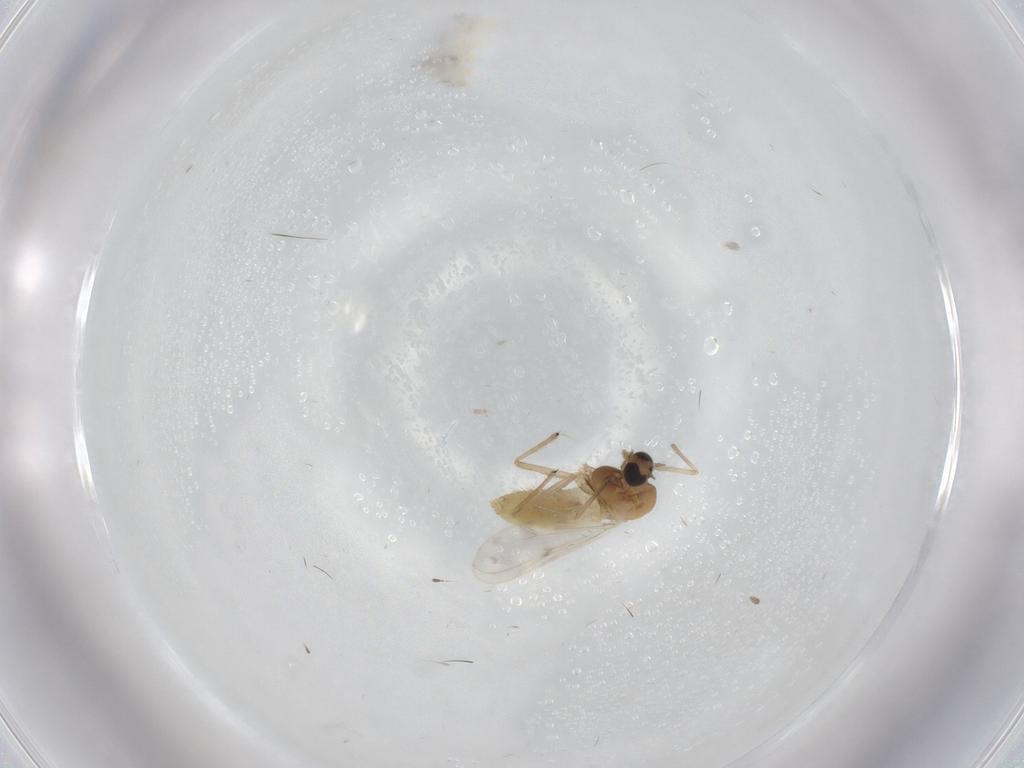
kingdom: Animalia
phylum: Arthropoda
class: Insecta
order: Diptera
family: Chironomidae
